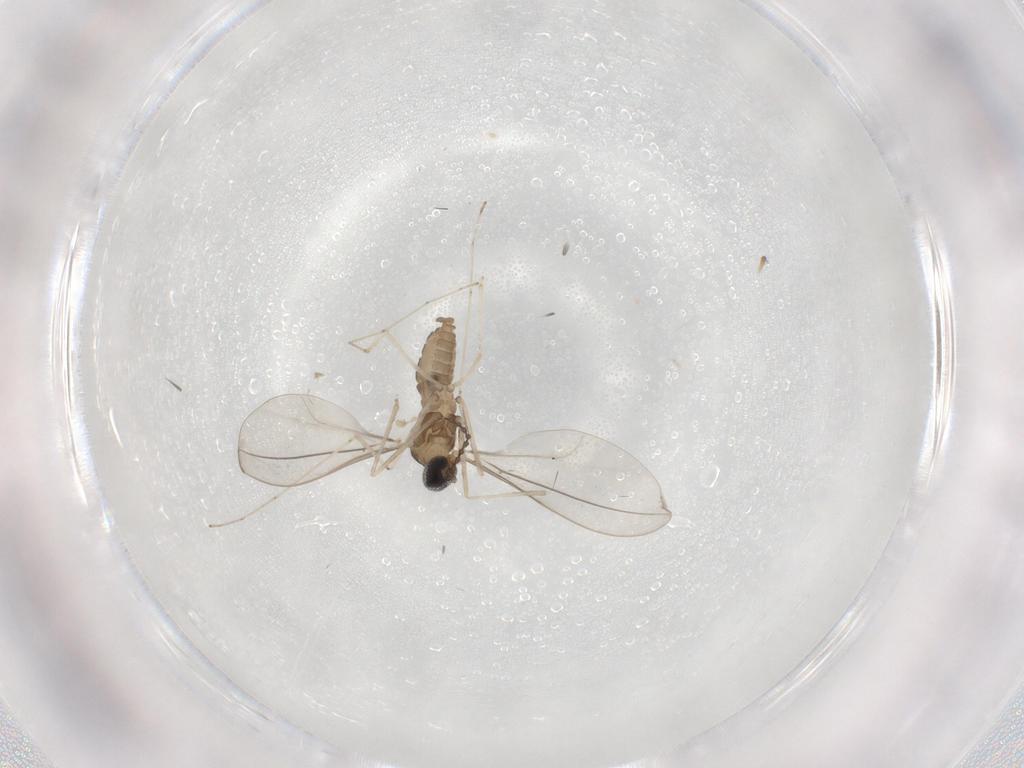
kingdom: Animalia
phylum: Arthropoda
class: Insecta
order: Diptera
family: Cecidomyiidae
